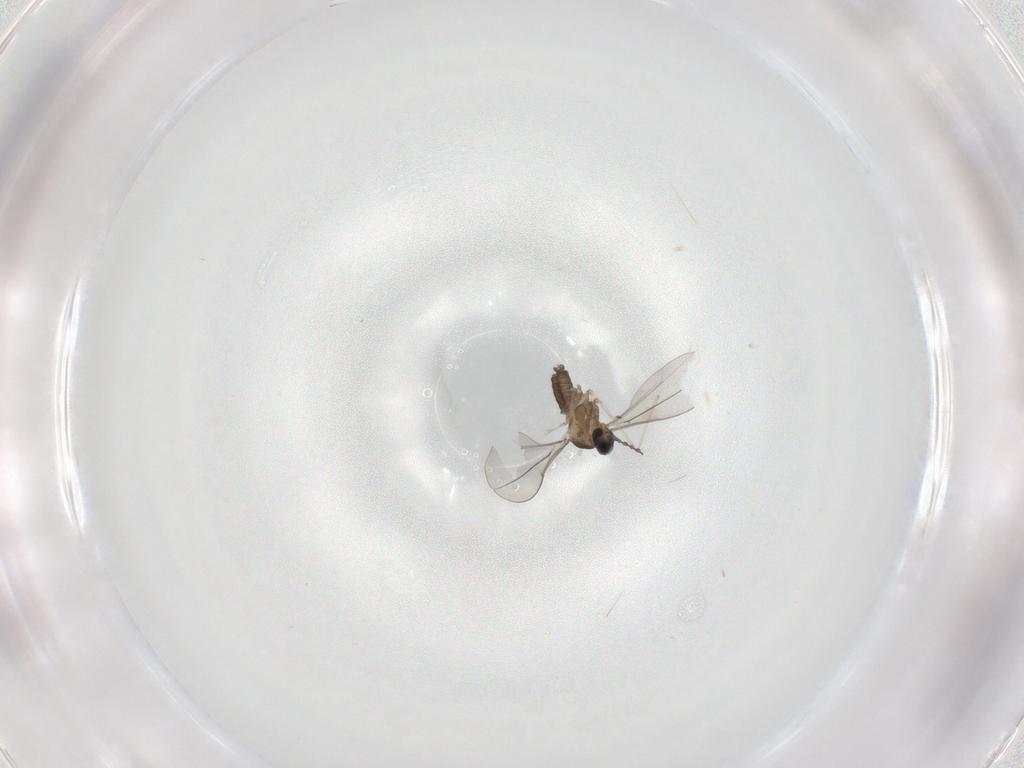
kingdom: Animalia
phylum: Arthropoda
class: Insecta
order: Diptera
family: Cecidomyiidae
